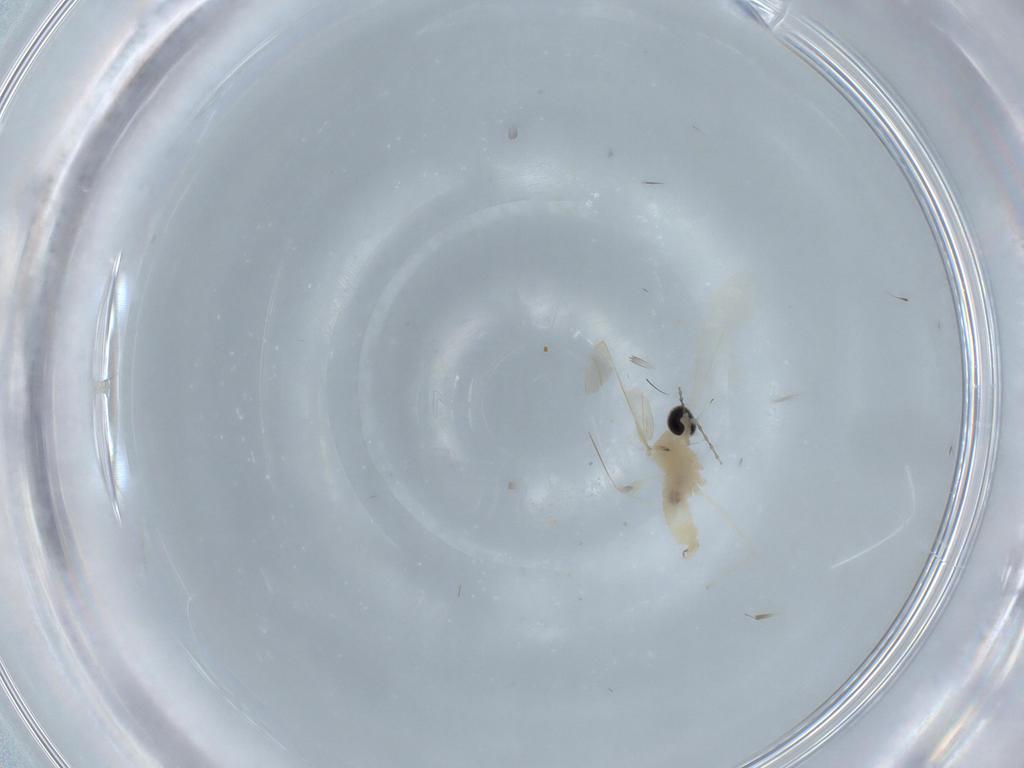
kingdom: Animalia
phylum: Arthropoda
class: Insecta
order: Diptera
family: Cecidomyiidae
